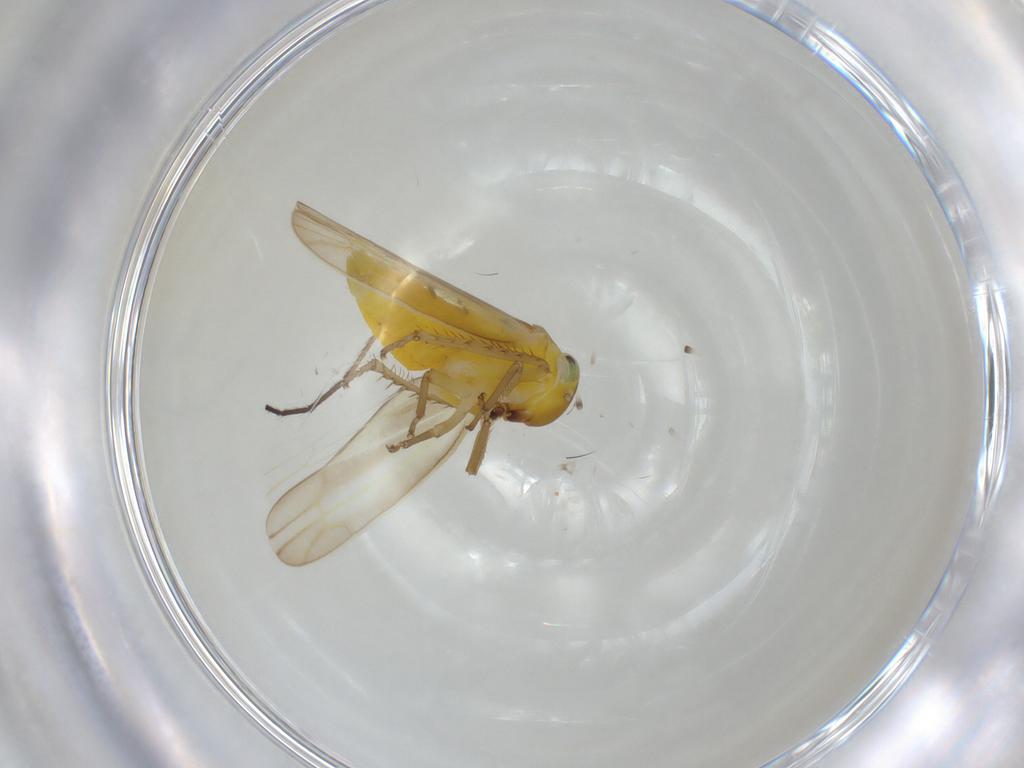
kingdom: Animalia
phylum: Arthropoda
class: Insecta
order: Hemiptera
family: Cicadellidae
